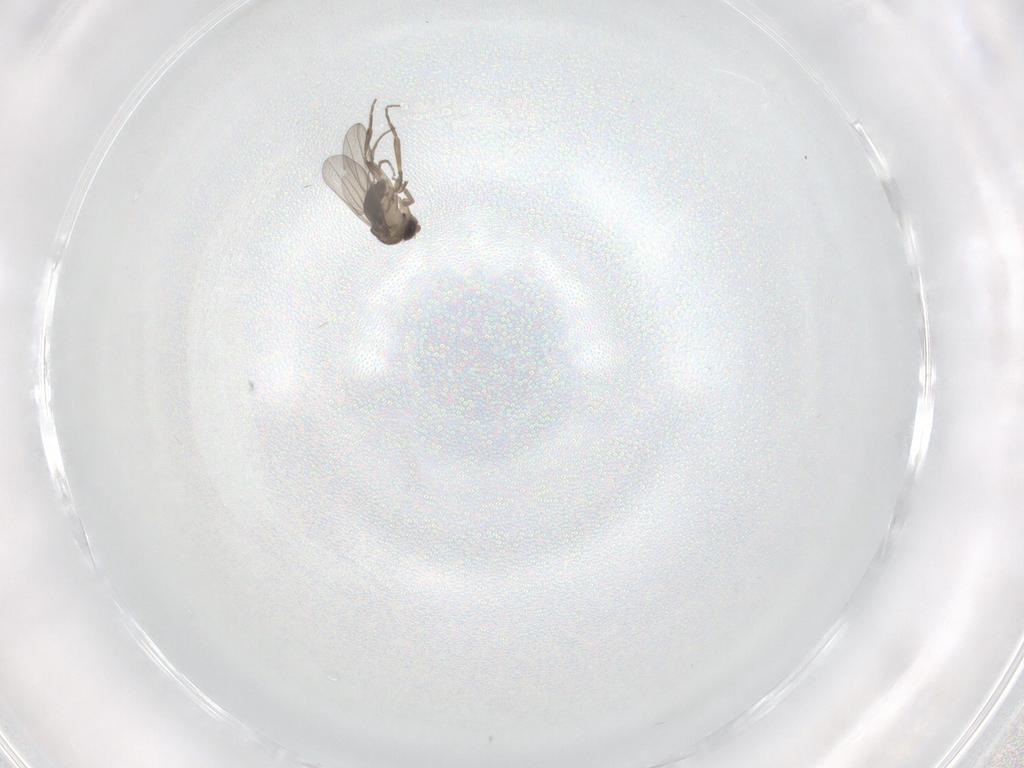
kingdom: Animalia
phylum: Arthropoda
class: Insecta
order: Diptera
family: Phoridae
